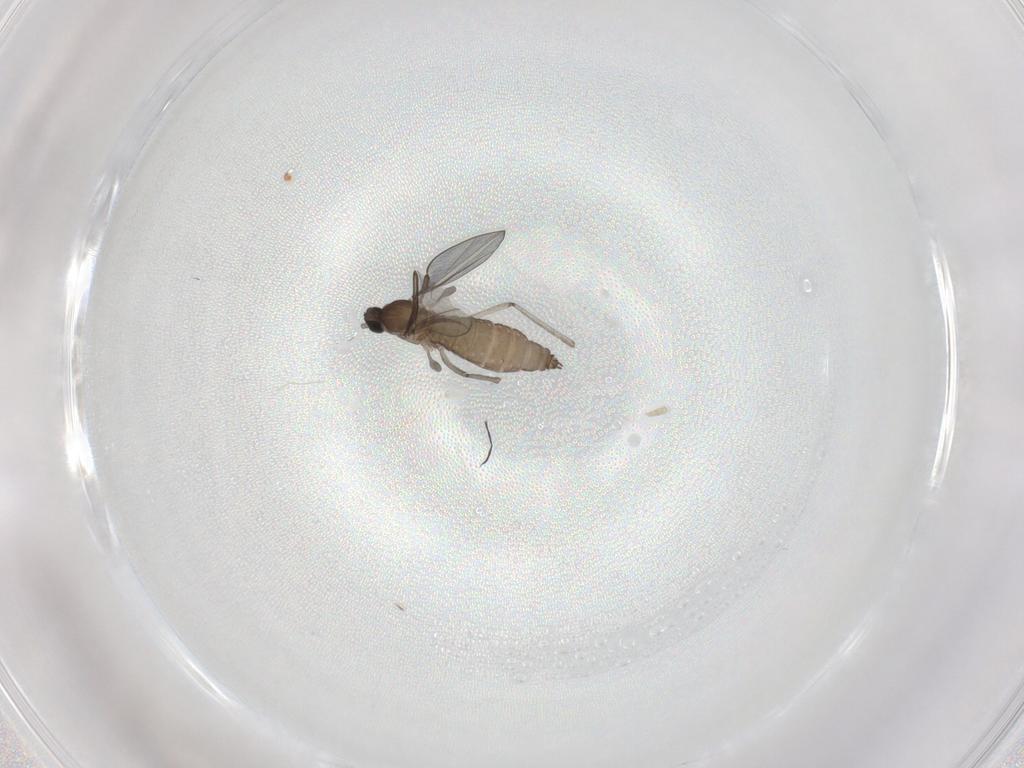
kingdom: Animalia
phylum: Arthropoda
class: Insecta
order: Diptera
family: Cecidomyiidae
